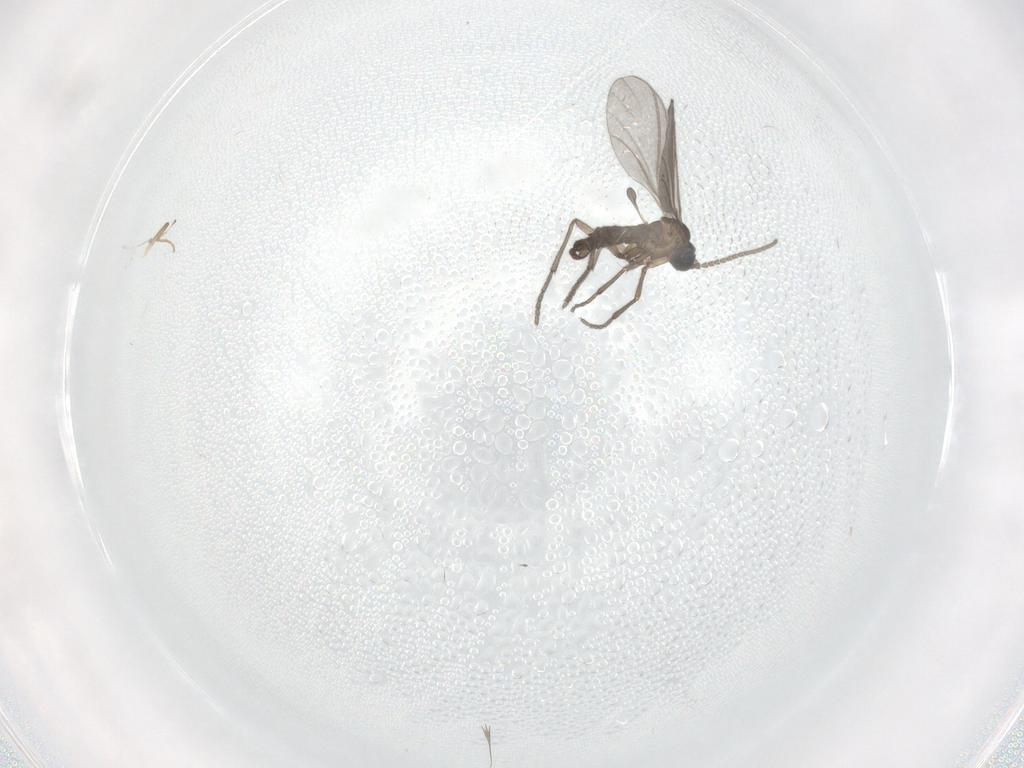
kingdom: Animalia
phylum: Arthropoda
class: Insecta
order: Diptera
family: Sciaridae
